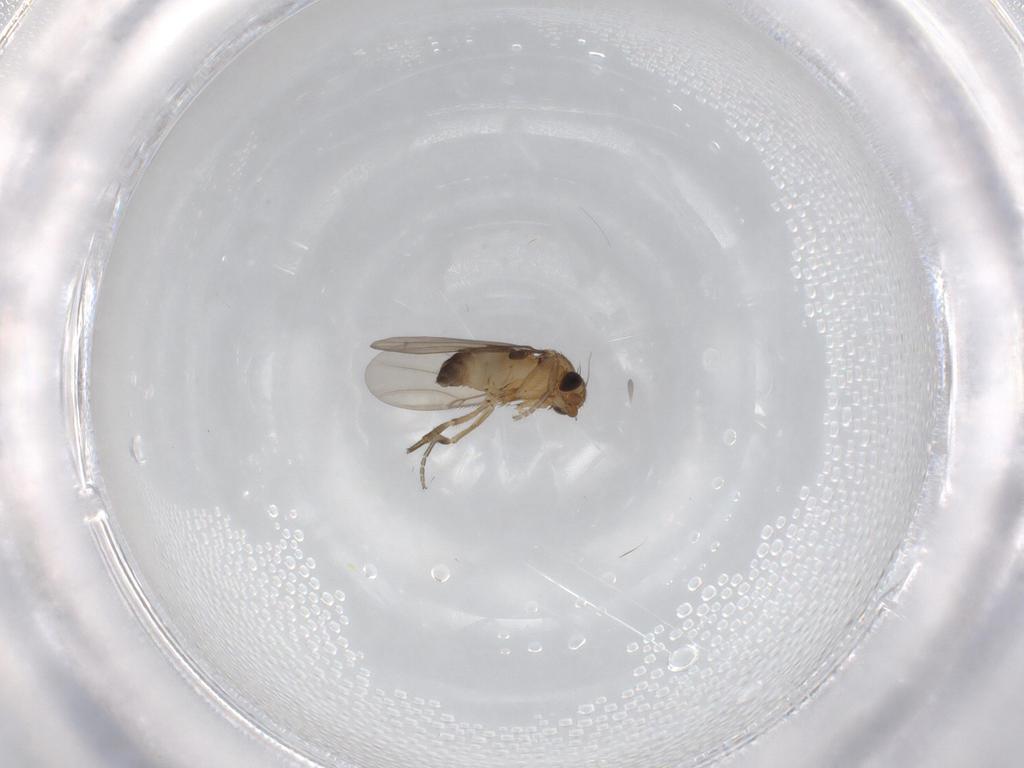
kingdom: Animalia
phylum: Arthropoda
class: Insecta
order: Diptera
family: Phoridae
